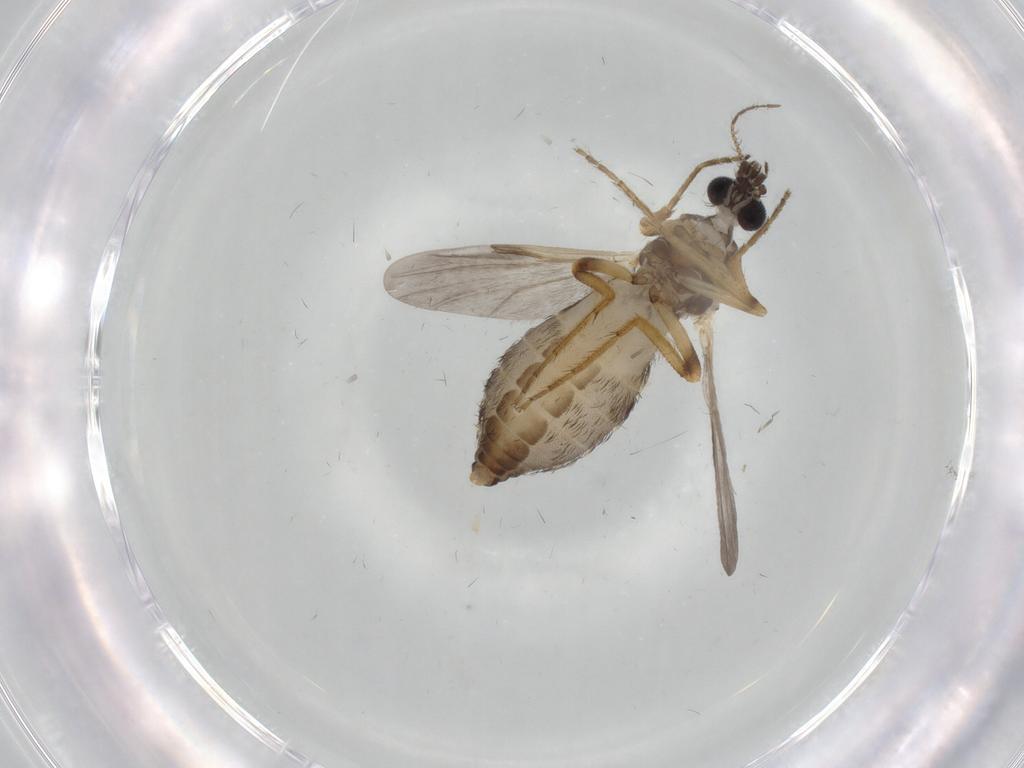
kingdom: Animalia
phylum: Arthropoda
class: Insecta
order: Diptera
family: Ceratopogonidae
